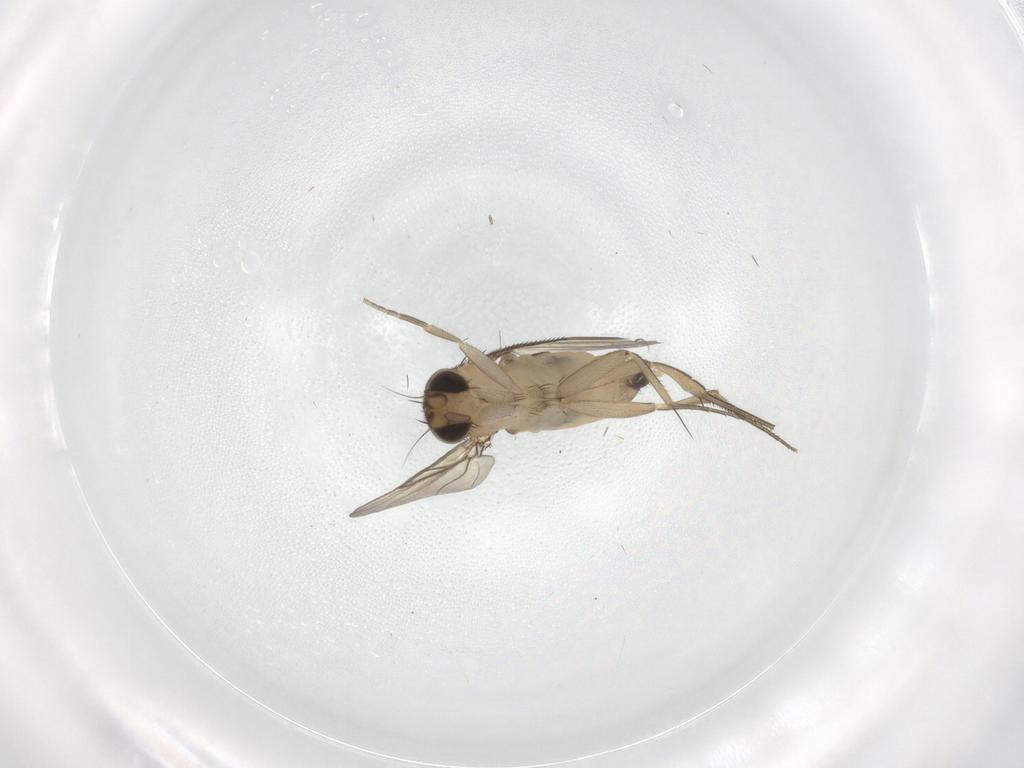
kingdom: Animalia
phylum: Arthropoda
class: Insecta
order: Diptera
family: Phoridae
